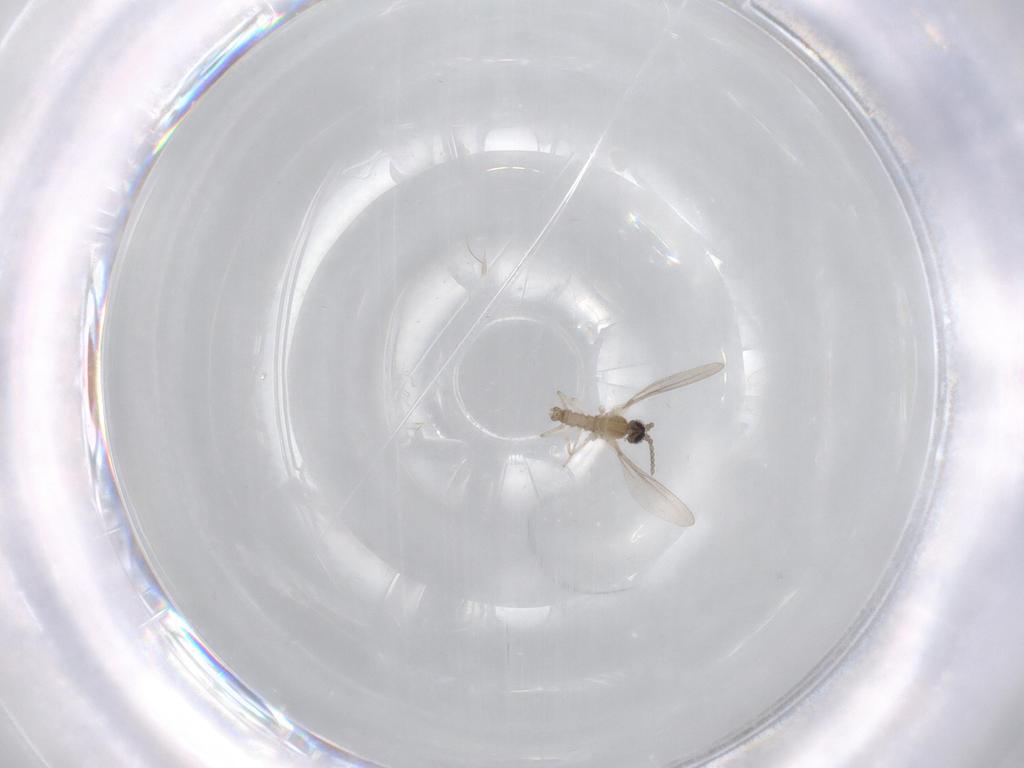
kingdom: Animalia
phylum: Arthropoda
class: Insecta
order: Diptera
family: Cecidomyiidae
